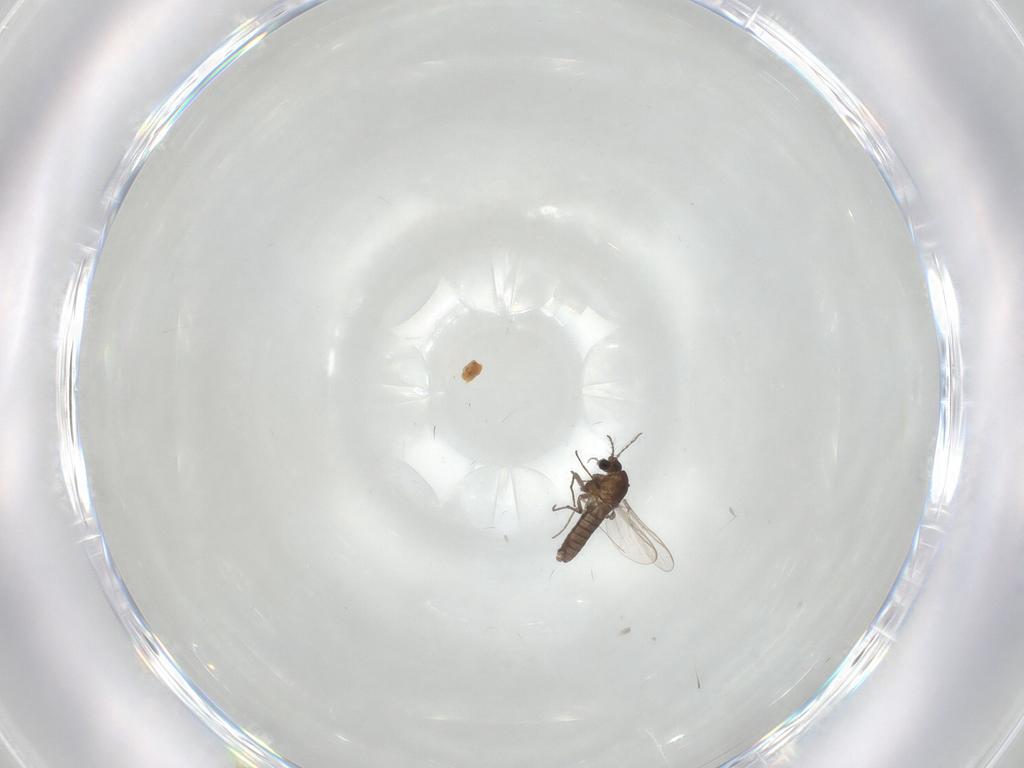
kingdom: Animalia
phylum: Arthropoda
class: Insecta
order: Diptera
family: Chironomidae
